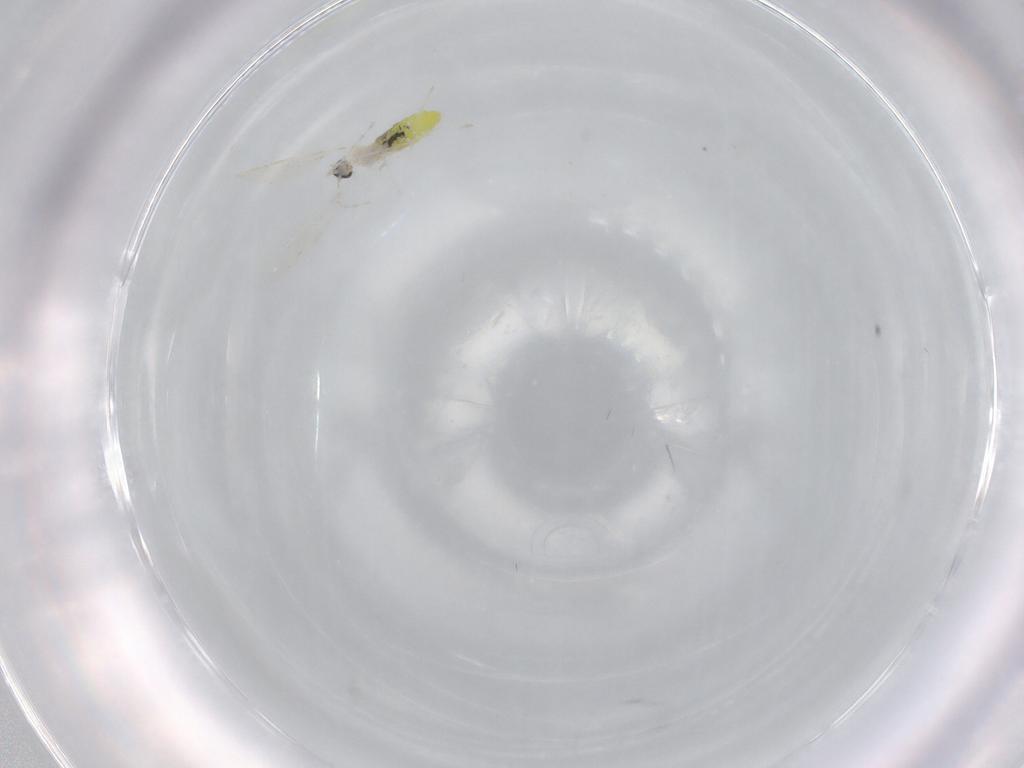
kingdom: Animalia
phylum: Arthropoda
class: Insecta
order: Diptera
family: Cecidomyiidae
